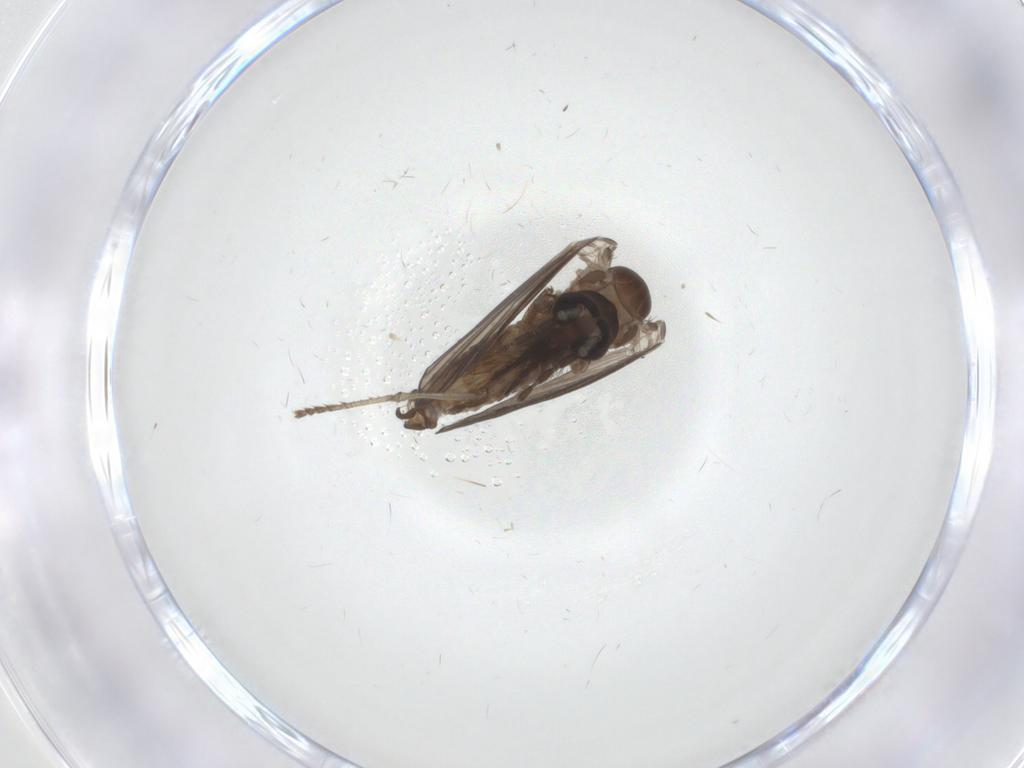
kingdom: Animalia
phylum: Arthropoda
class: Insecta
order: Diptera
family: Psychodidae
